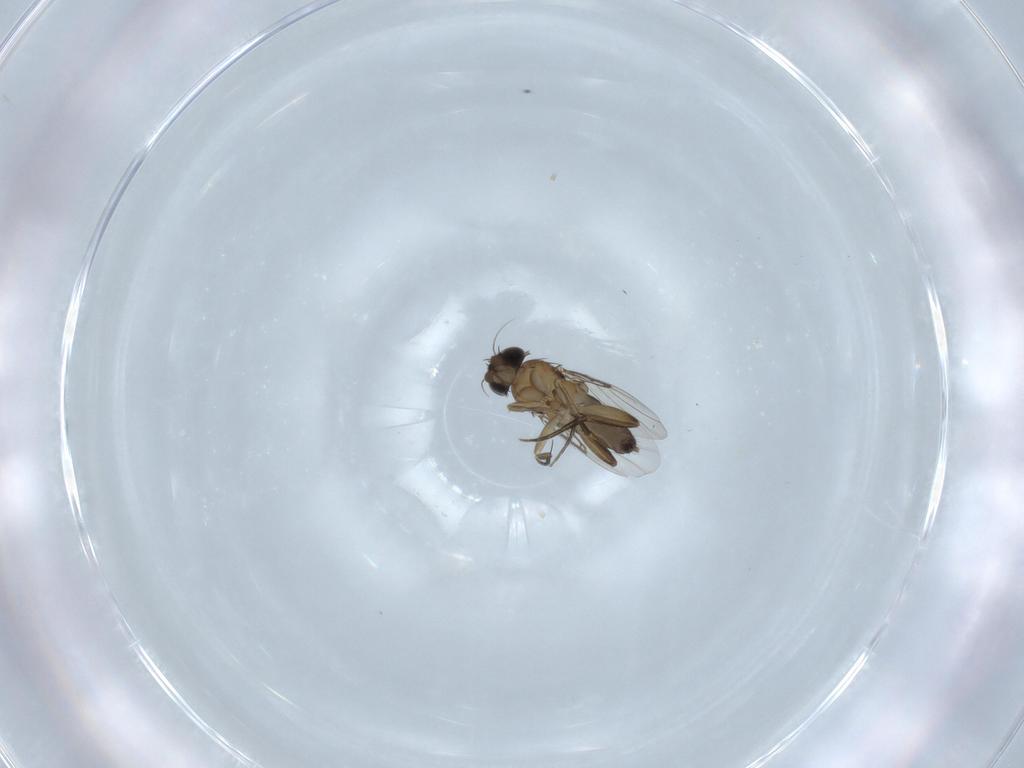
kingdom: Animalia
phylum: Arthropoda
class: Insecta
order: Diptera
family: Phoridae
